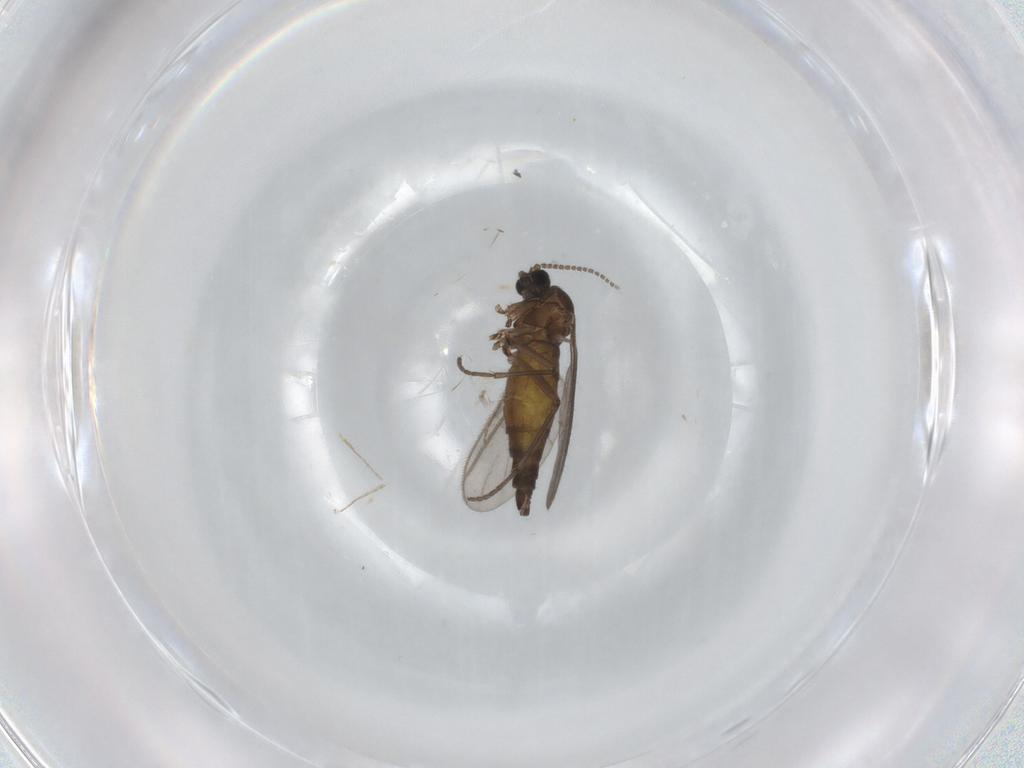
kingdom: Animalia
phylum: Arthropoda
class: Insecta
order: Diptera
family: Sciaridae
